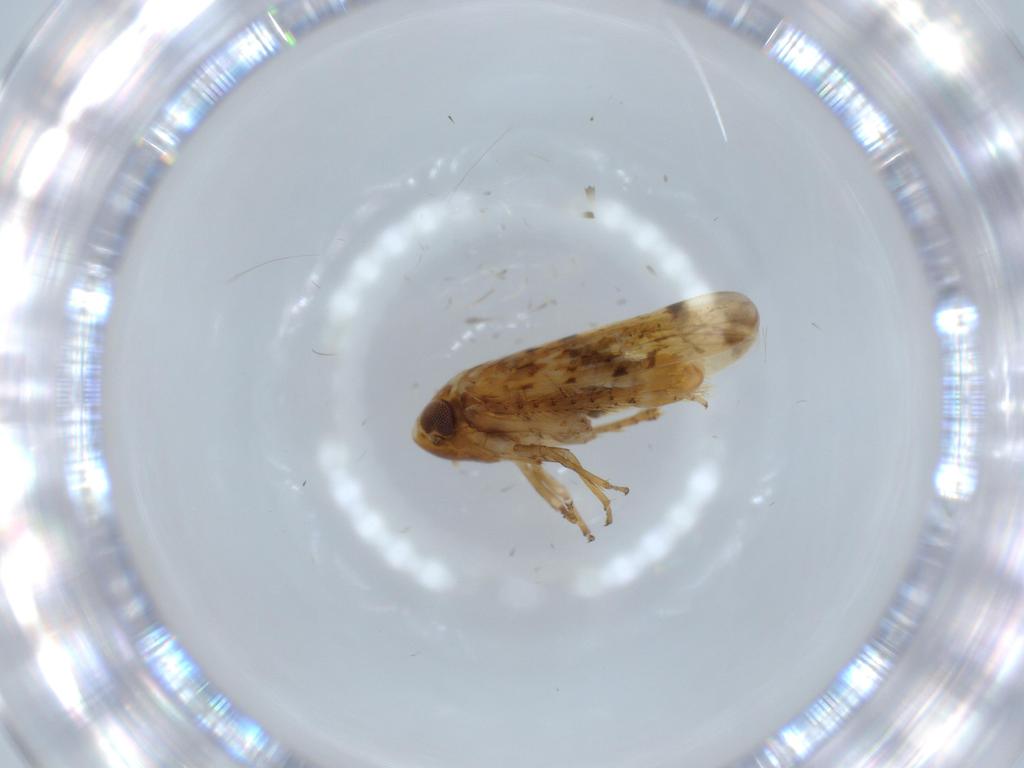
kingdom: Animalia
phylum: Arthropoda
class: Insecta
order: Hemiptera
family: Cicadellidae
